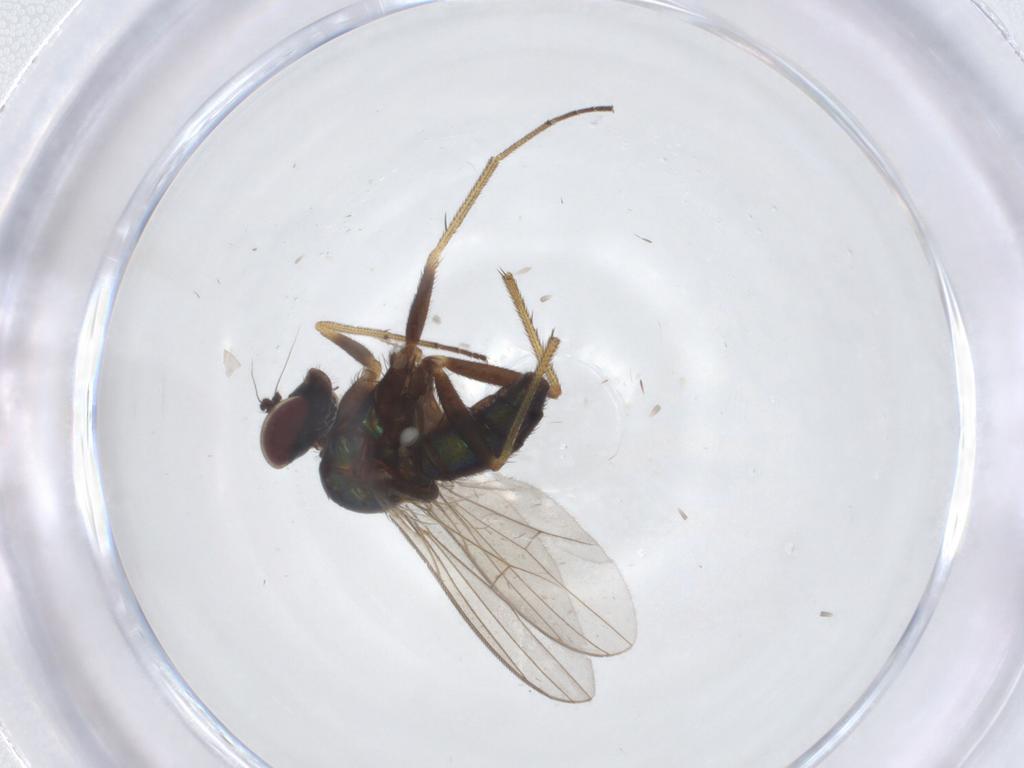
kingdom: Animalia
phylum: Arthropoda
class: Insecta
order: Diptera
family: Dolichopodidae
